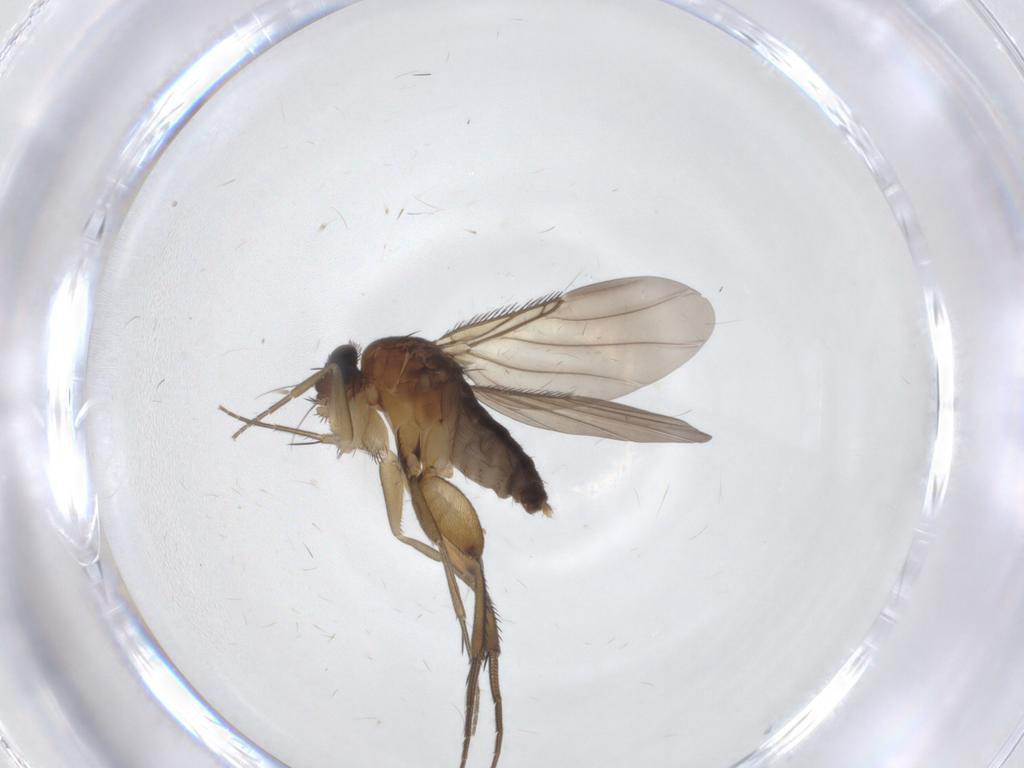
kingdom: Animalia
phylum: Arthropoda
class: Insecta
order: Diptera
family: Phoridae
